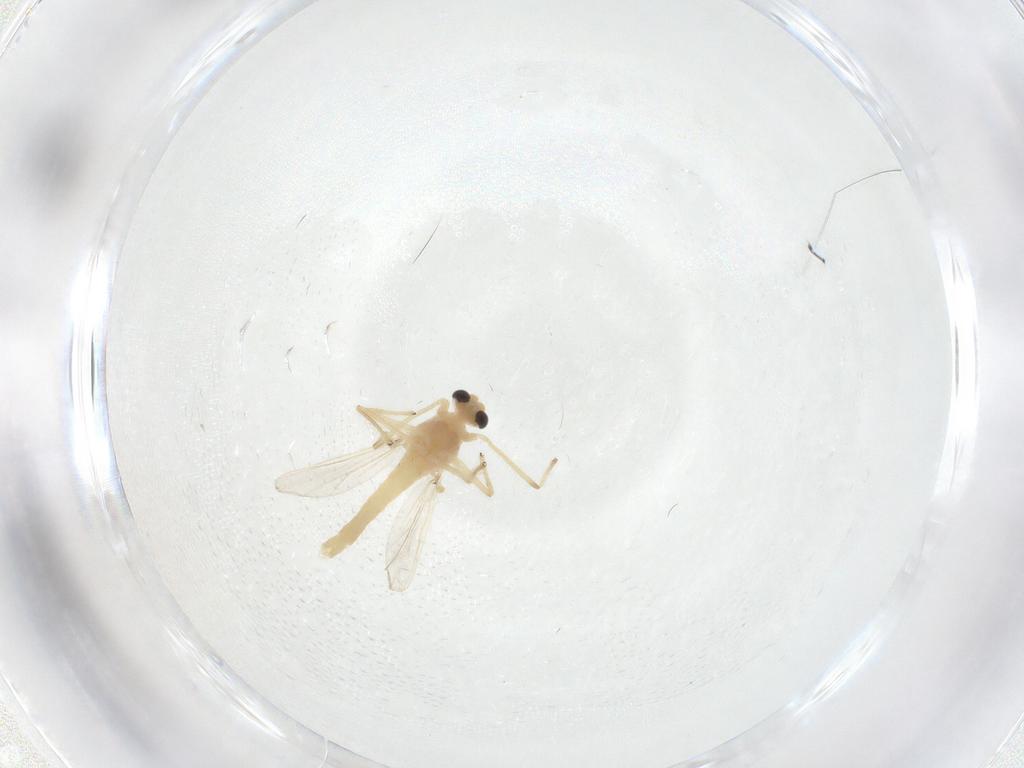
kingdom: Animalia
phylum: Arthropoda
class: Insecta
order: Diptera
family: Chironomidae
